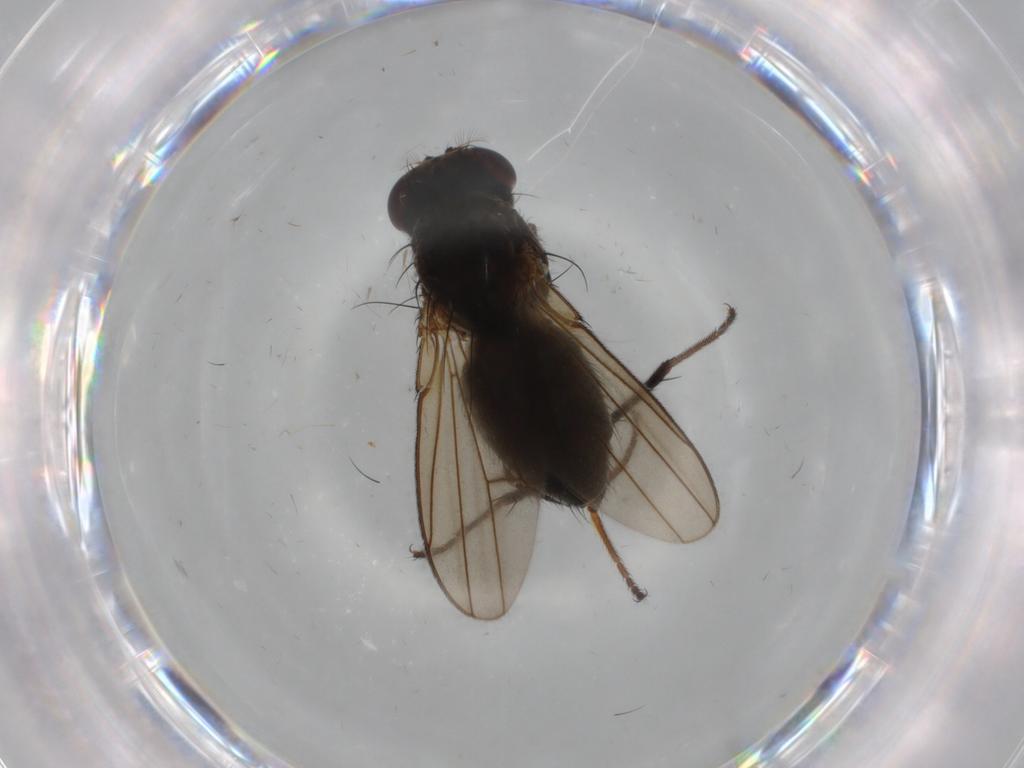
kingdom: Animalia
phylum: Arthropoda
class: Insecta
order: Diptera
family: Ephydridae
